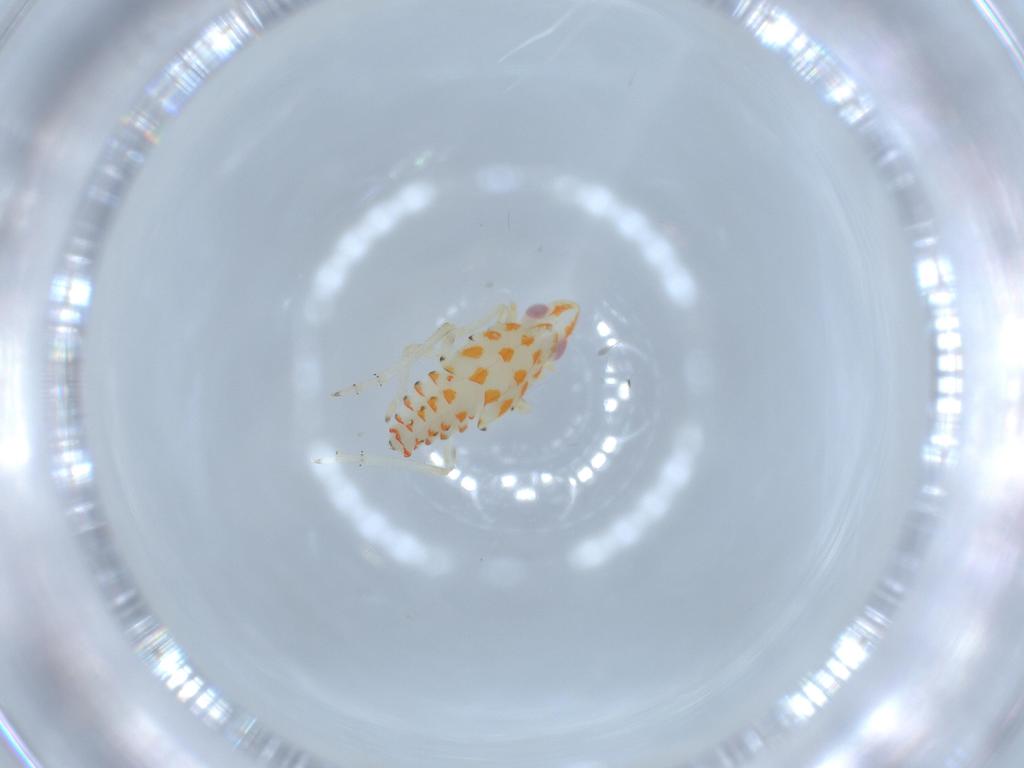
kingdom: Animalia
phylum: Arthropoda
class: Insecta
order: Hemiptera
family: Tropiduchidae
